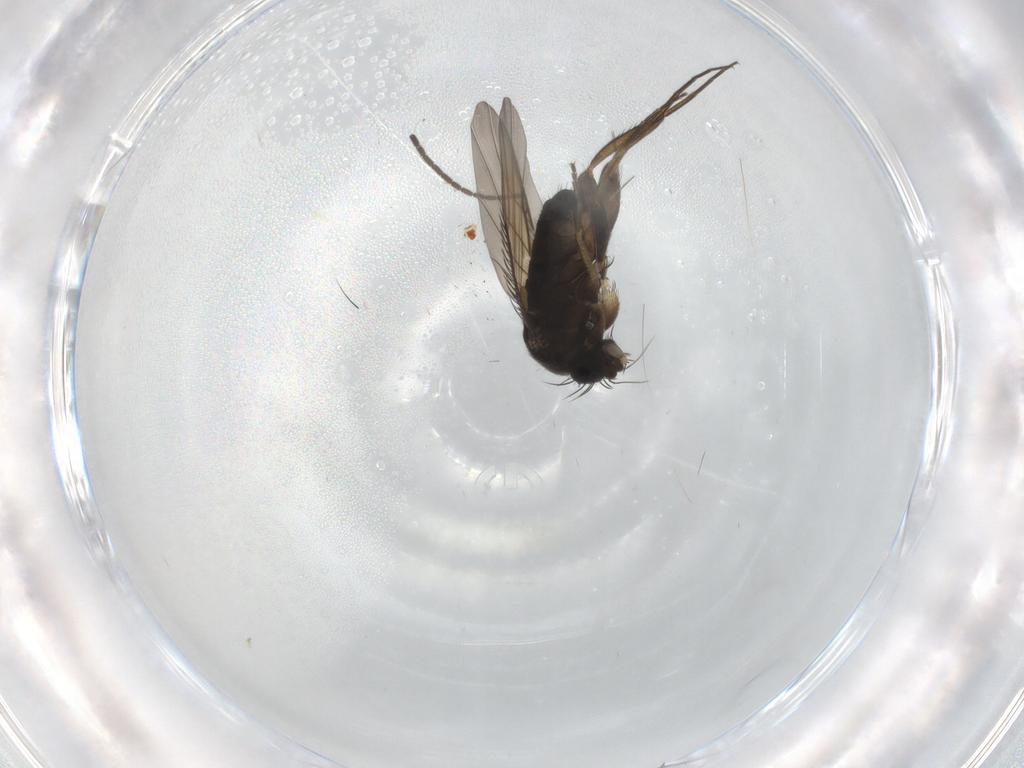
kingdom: Animalia
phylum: Arthropoda
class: Insecta
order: Diptera
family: Phoridae
